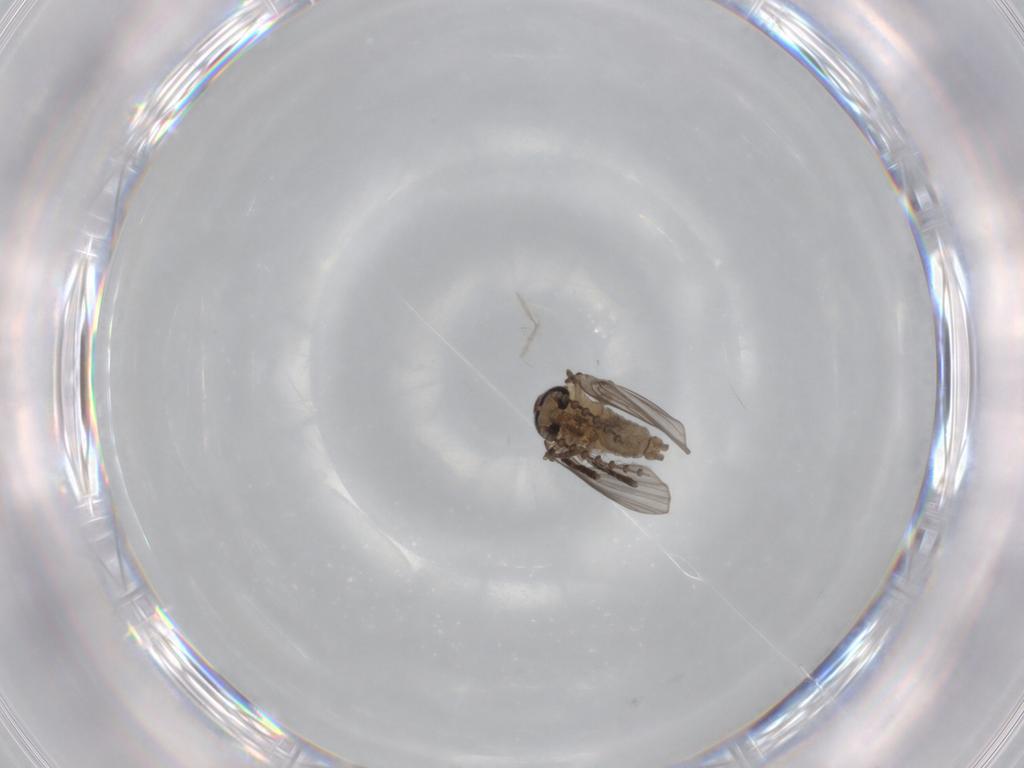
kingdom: Animalia
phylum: Arthropoda
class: Insecta
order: Diptera
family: Psychodidae
